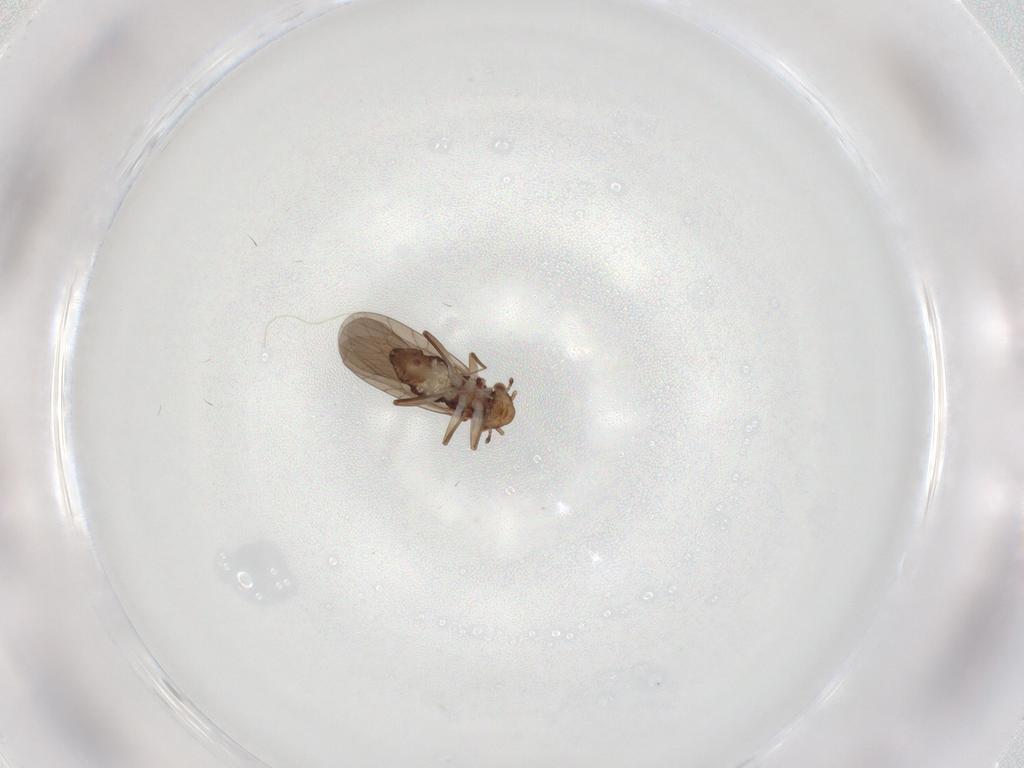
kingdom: Animalia
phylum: Arthropoda
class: Insecta
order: Psocodea
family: Lepidopsocidae
